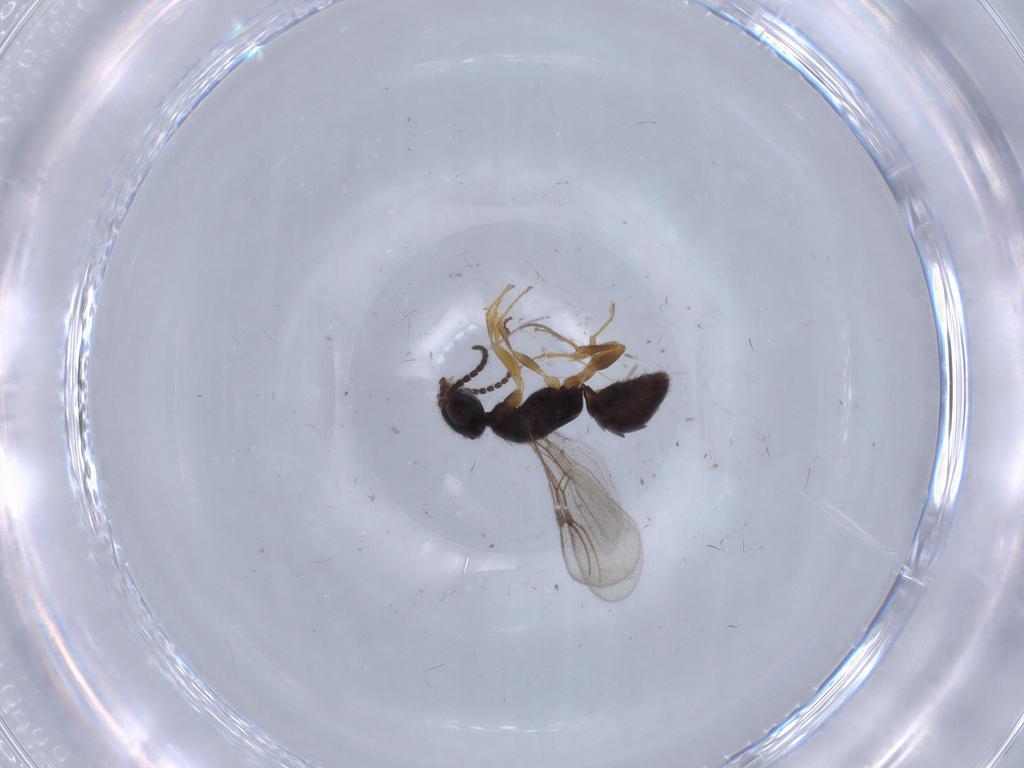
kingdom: Animalia
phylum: Arthropoda
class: Insecta
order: Hymenoptera
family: Bethylidae
